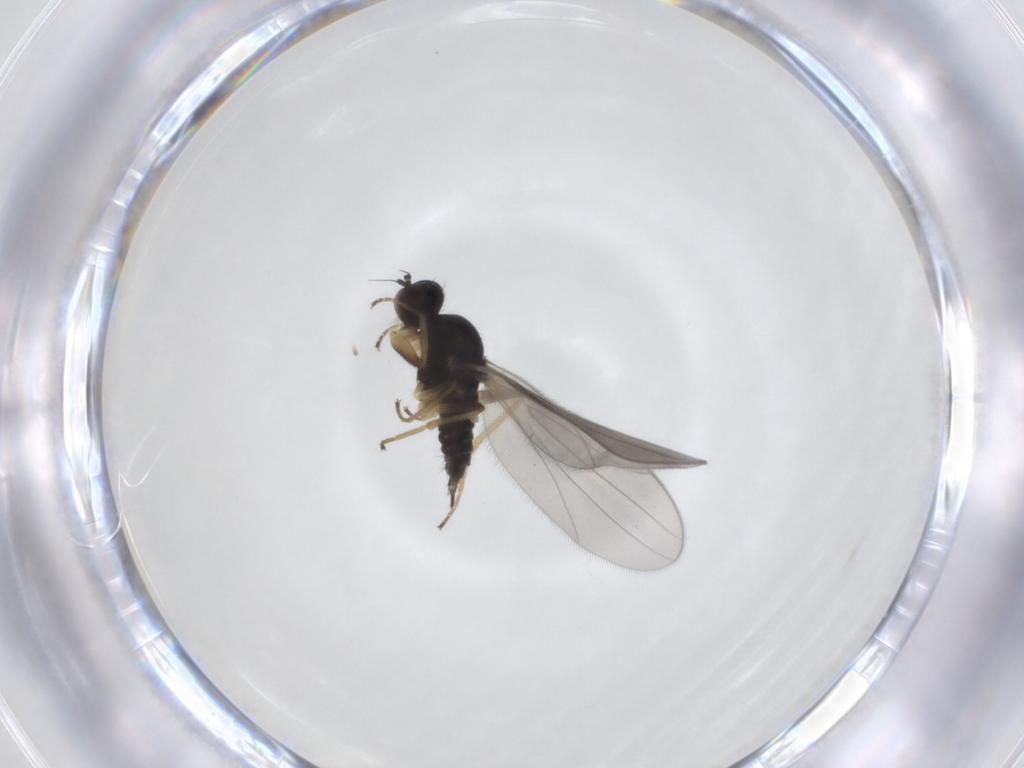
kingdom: Animalia
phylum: Arthropoda
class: Insecta
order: Diptera
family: Hybotidae
